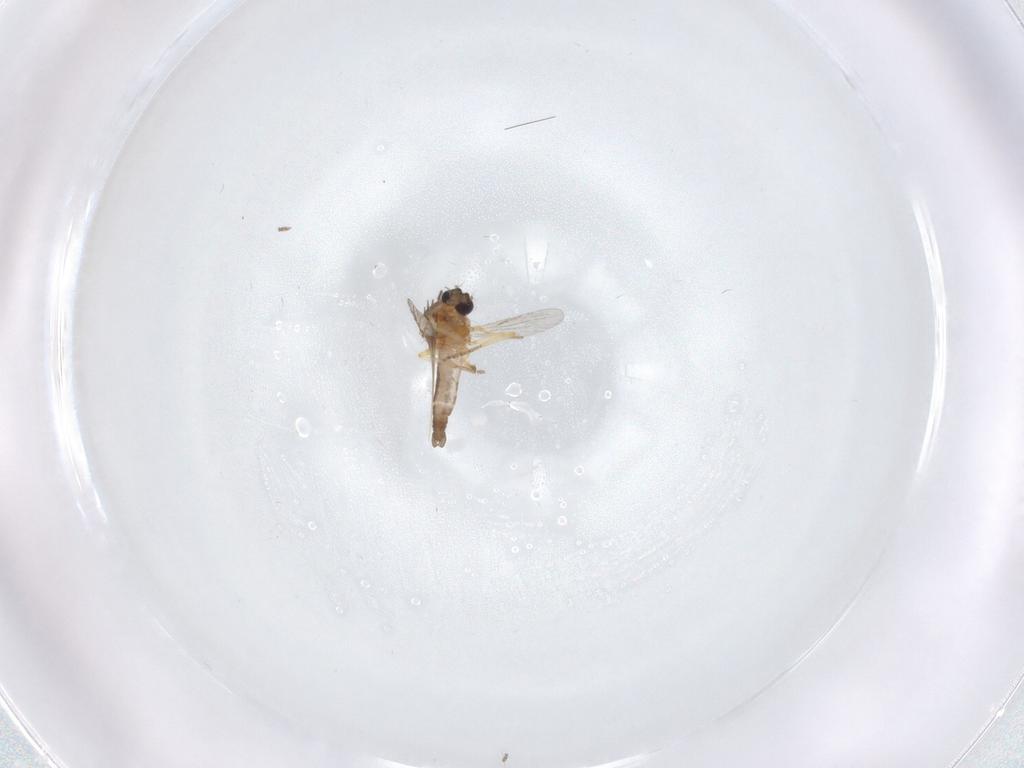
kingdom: Animalia
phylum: Arthropoda
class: Insecta
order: Diptera
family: Ceratopogonidae
